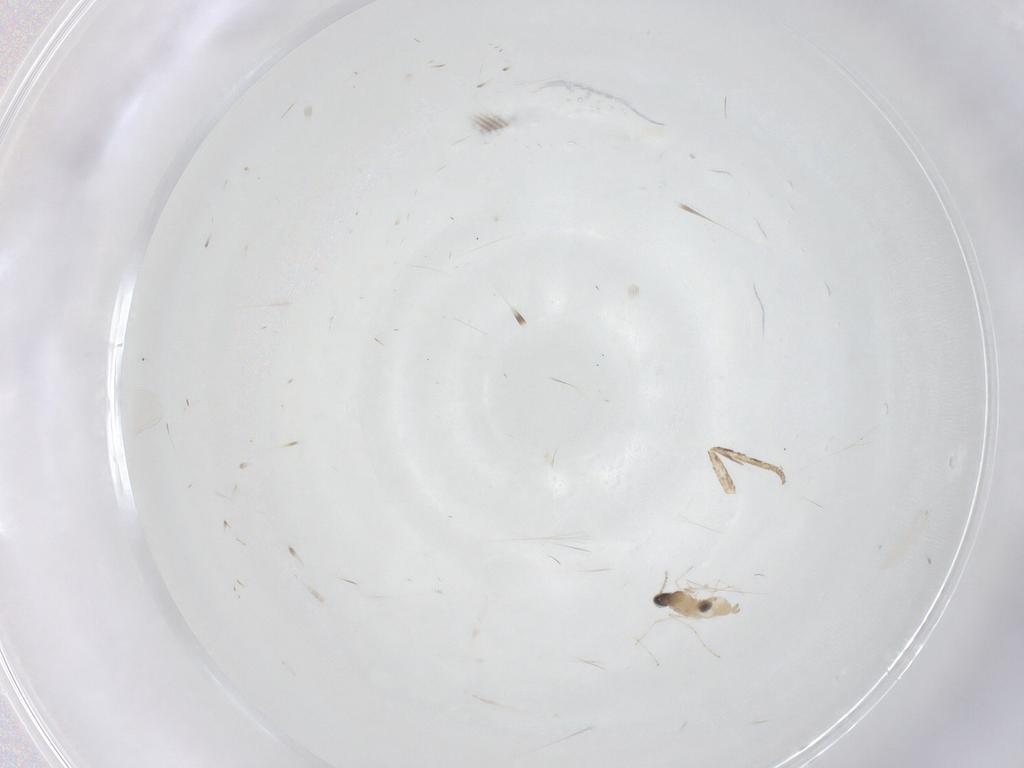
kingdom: Animalia
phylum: Arthropoda
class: Insecta
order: Diptera
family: Cecidomyiidae
